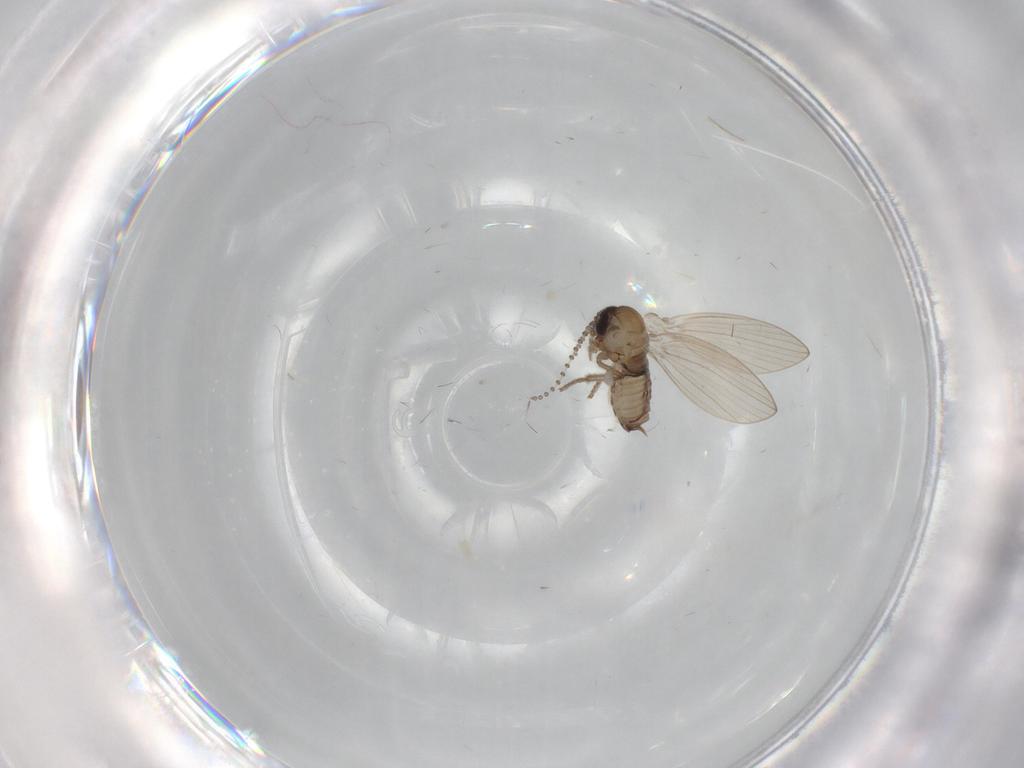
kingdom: Animalia
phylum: Arthropoda
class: Insecta
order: Diptera
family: Psychodidae
